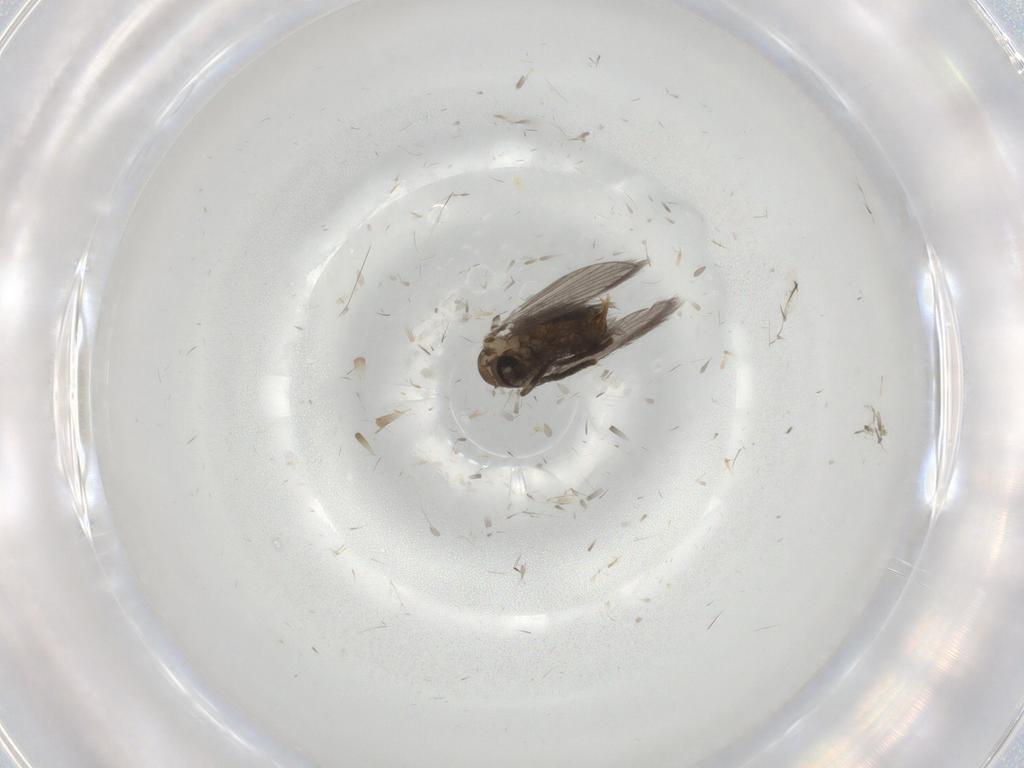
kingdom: Animalia
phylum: Arthropoda
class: Insecta
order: Diptera
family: Psychodidae
